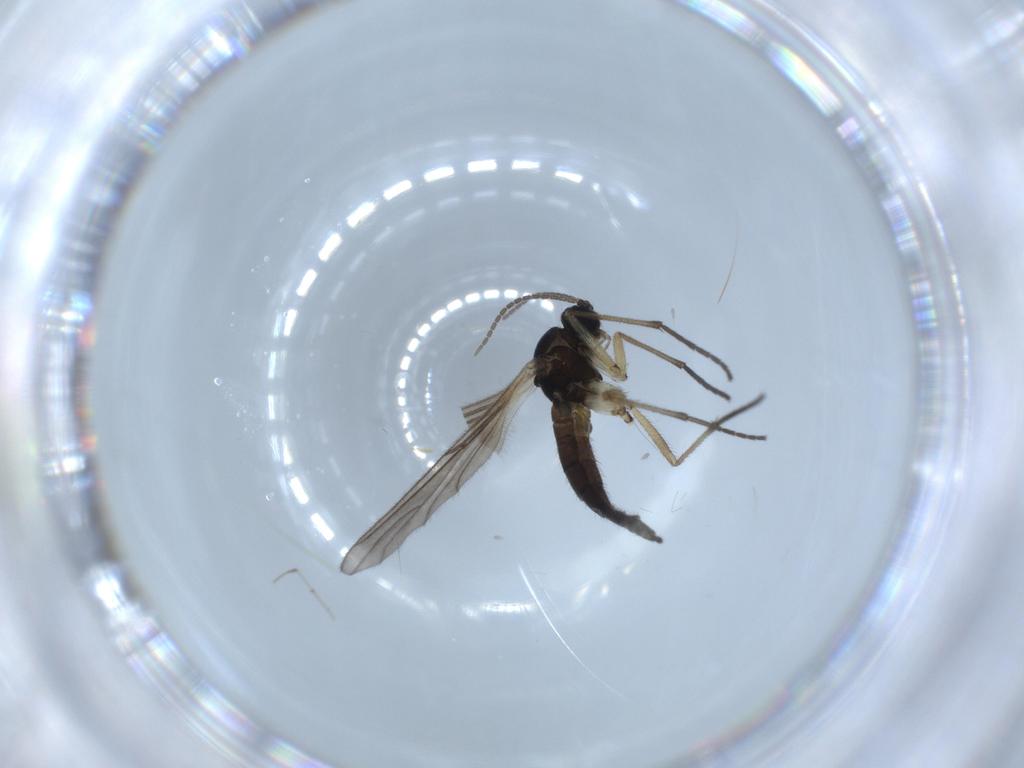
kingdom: Animalia
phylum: Arthropoda
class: Insecta
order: Diptera
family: Sciaridae
